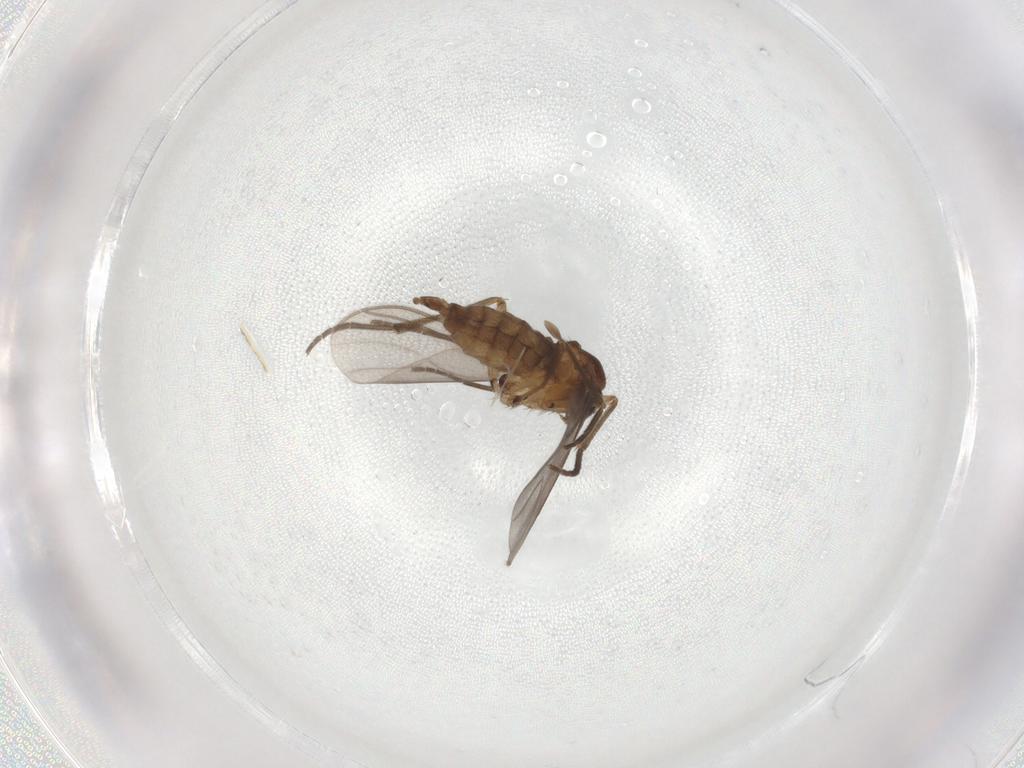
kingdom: Animalia
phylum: Arthropoda
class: Insecta
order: Diptera
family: Sciaridae
